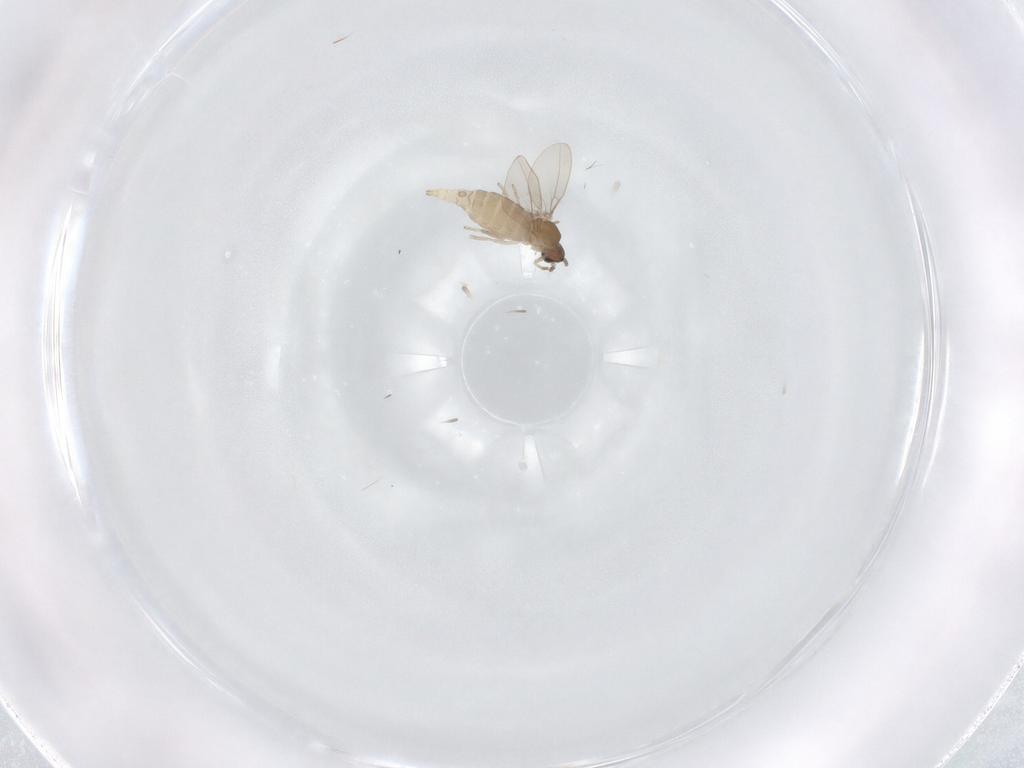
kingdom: Animalia
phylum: Arthropoda
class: Insecta
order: Diptera
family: Cecidomyiidae
